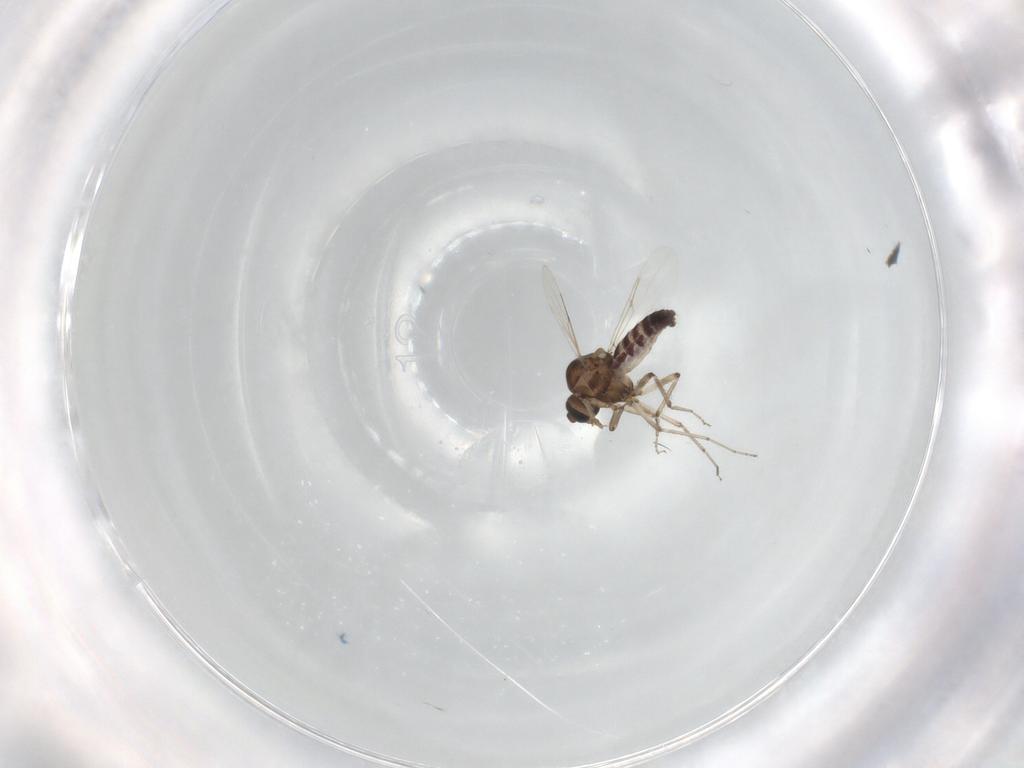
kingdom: Animalia
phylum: Arthropoda
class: Insecta
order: Diptera
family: Ceratopogonidae
